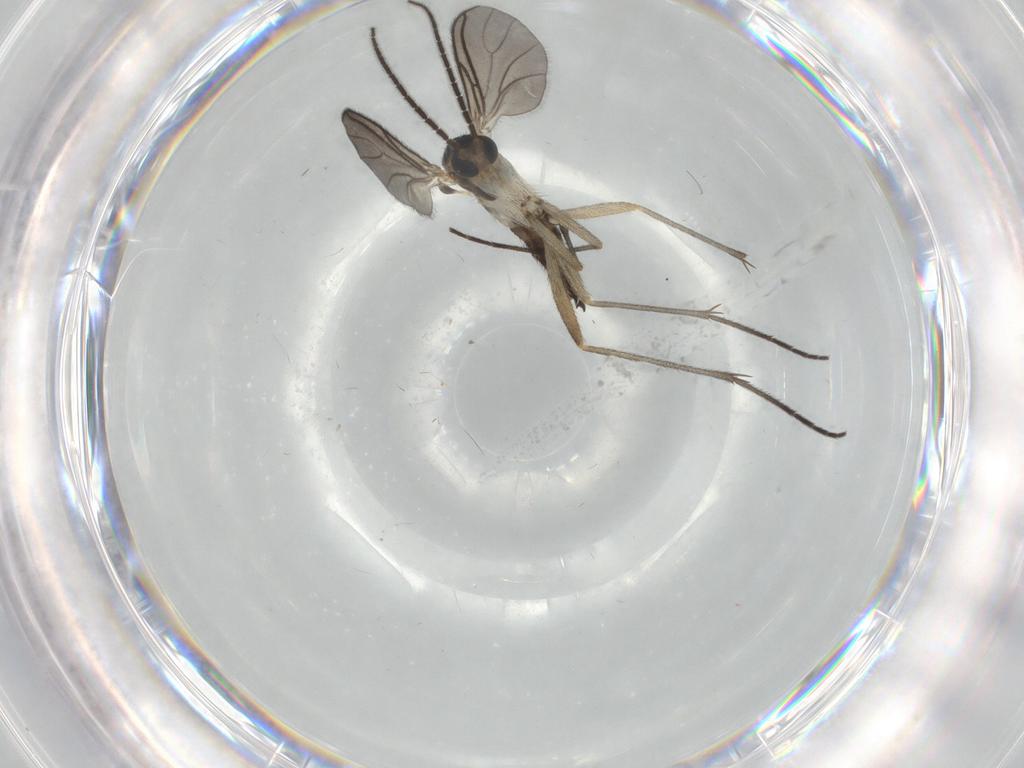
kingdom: Animalia
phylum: Arthropoda
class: Insecta
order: Diptera
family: Sciaridae
